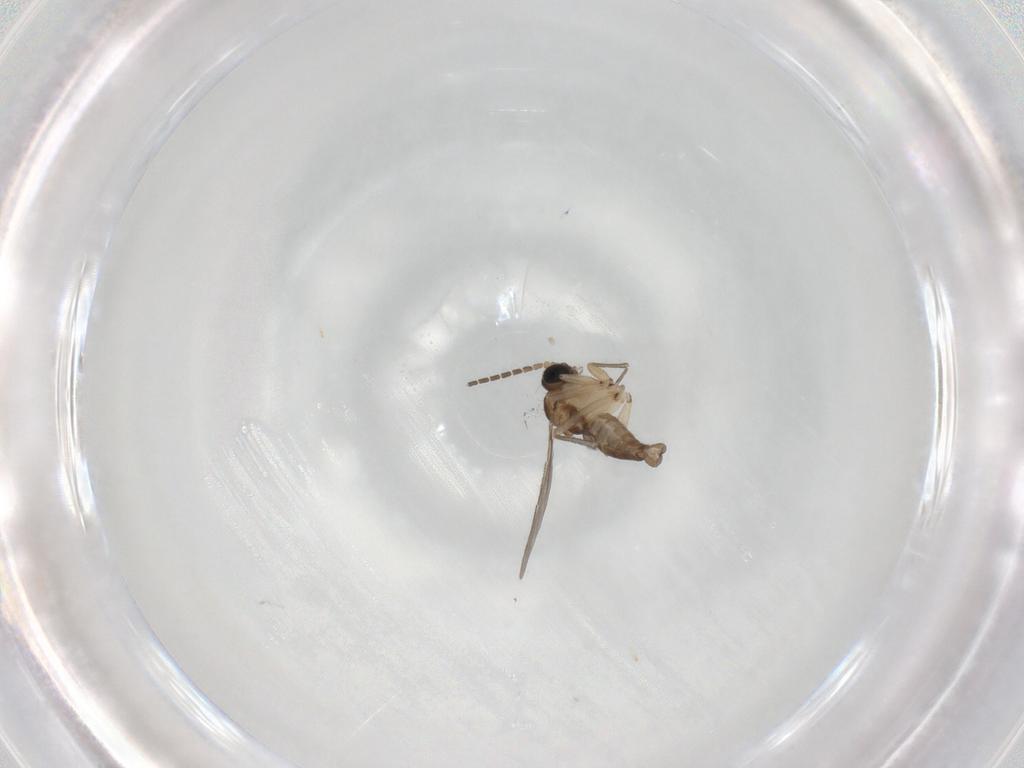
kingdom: Animalia
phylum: Arthropoda
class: Insecta
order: Diptera
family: Sciaridae
